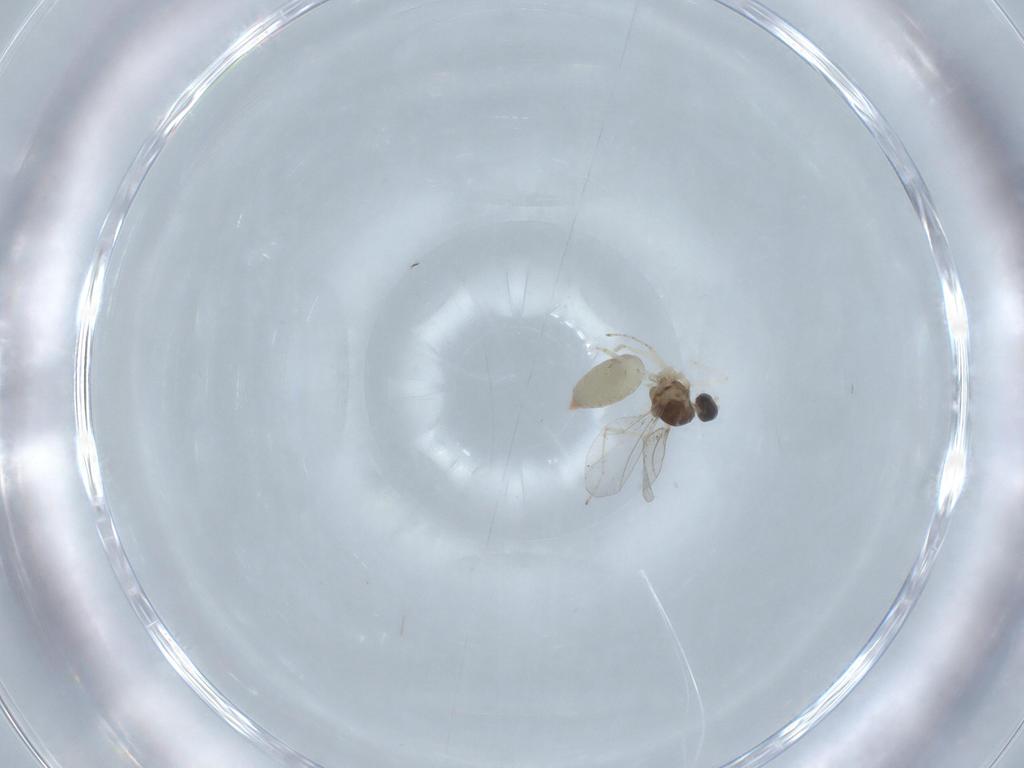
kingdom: Animalia
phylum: Arthropoda
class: Insecta
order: Diptera
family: Cecidomyiidae
